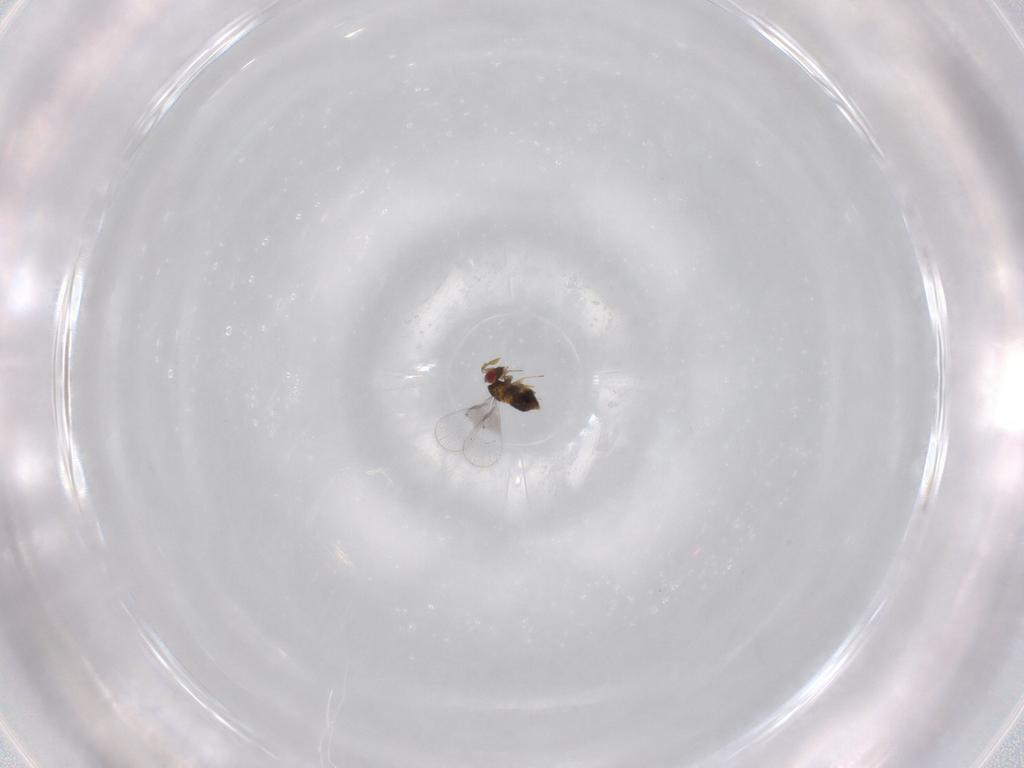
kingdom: Animalia
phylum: Arthropoda
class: Insecta
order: Hymenoptera
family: Trichogrammatidae
